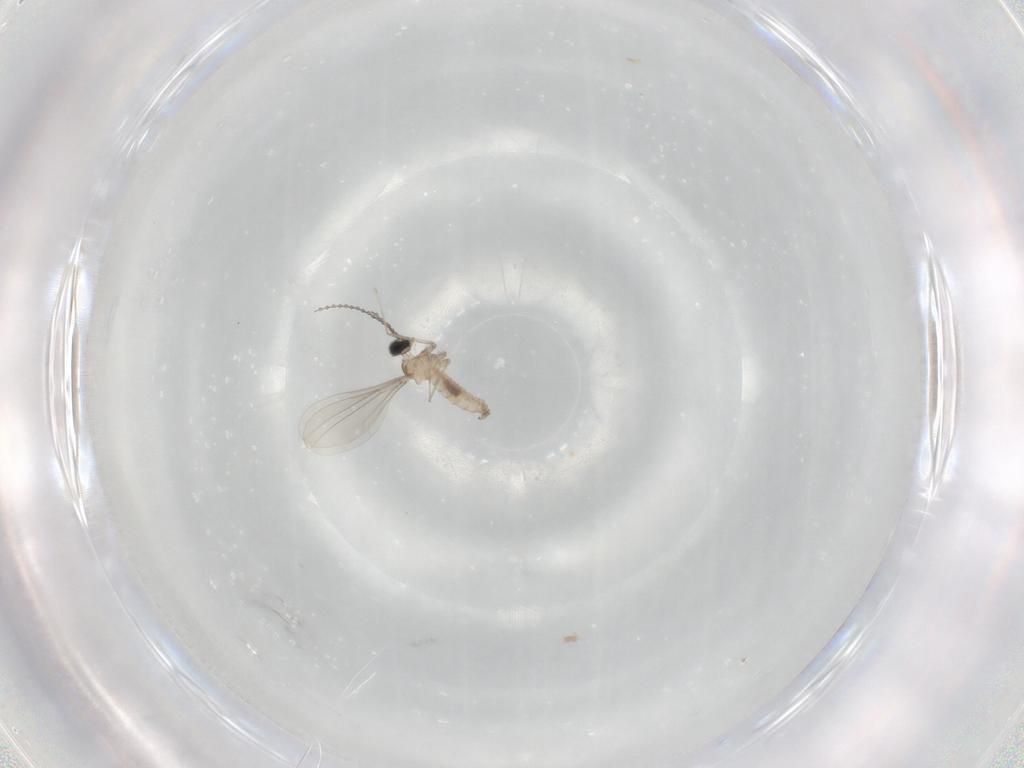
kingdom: Animalia
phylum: Arthropoda
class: Insecta
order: Diptera
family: Cecidomyiidae
